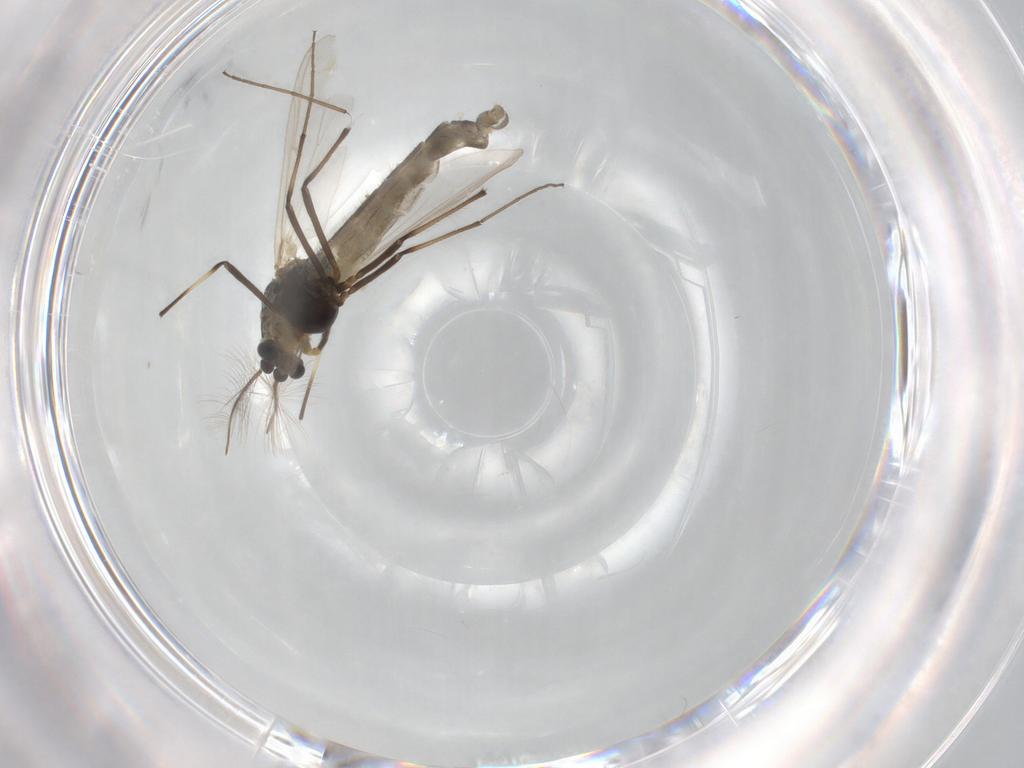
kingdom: Animalia
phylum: Arthropoda
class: Insecta
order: Diptera
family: Chironomidae
